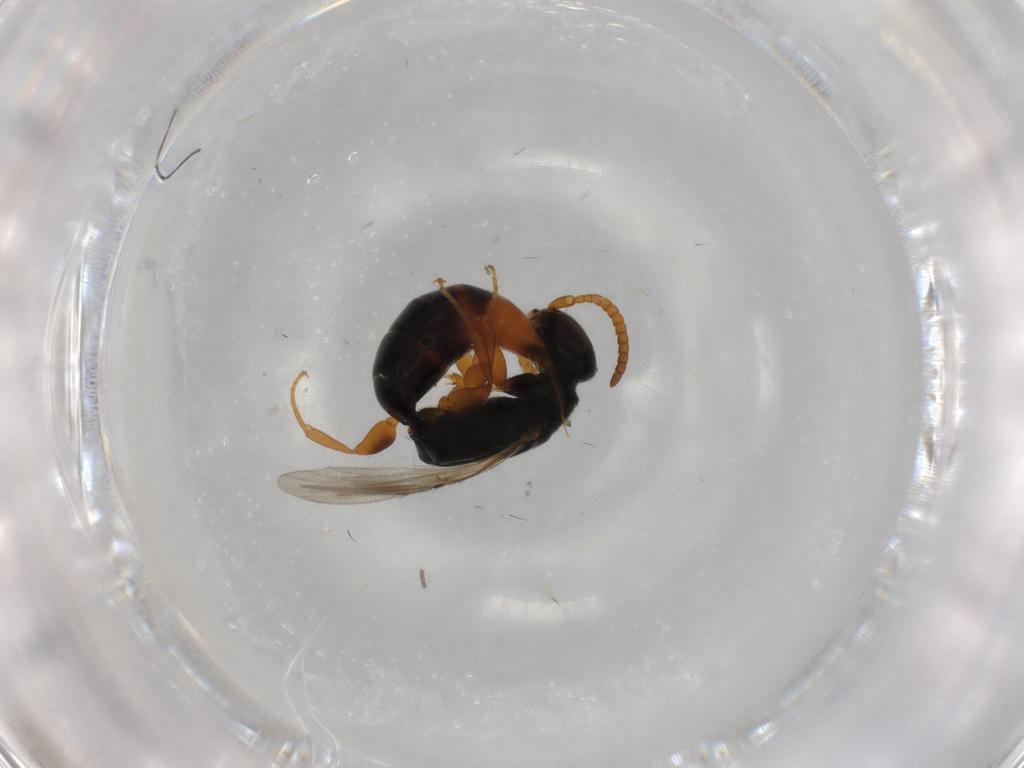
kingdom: Animalia
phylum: Arthropoda
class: Insecta
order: Hymenoptera
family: Bethylidae
